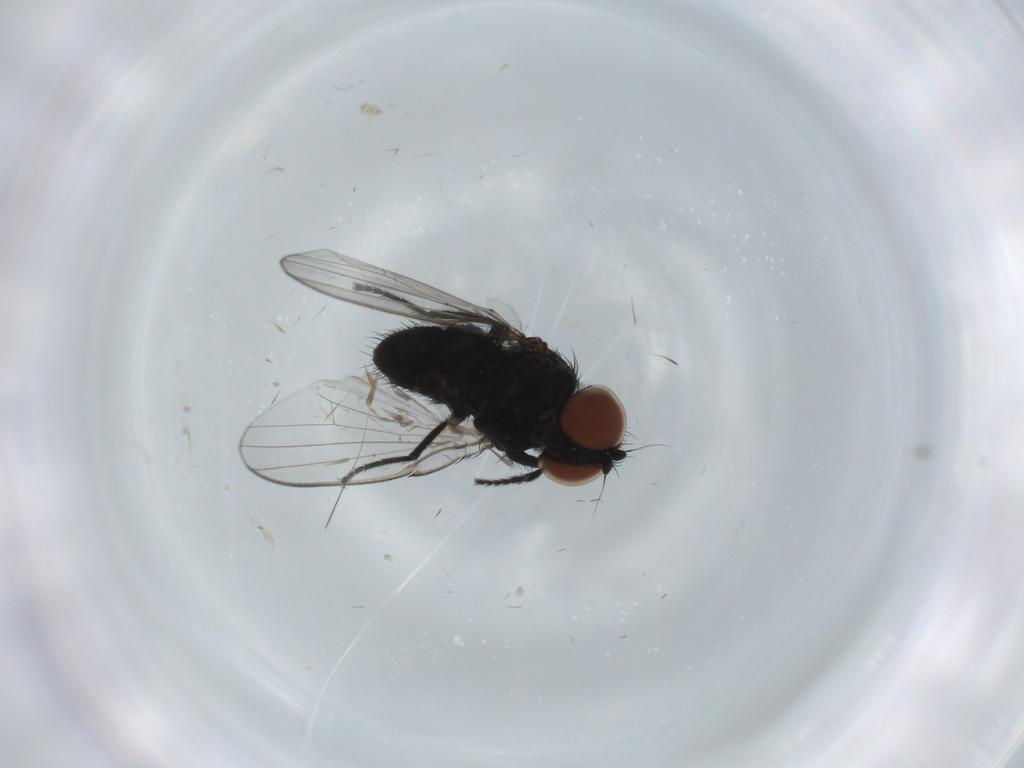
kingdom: Animalia
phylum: Arthropoda
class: Insecta
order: Diptera
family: Milichiidae
